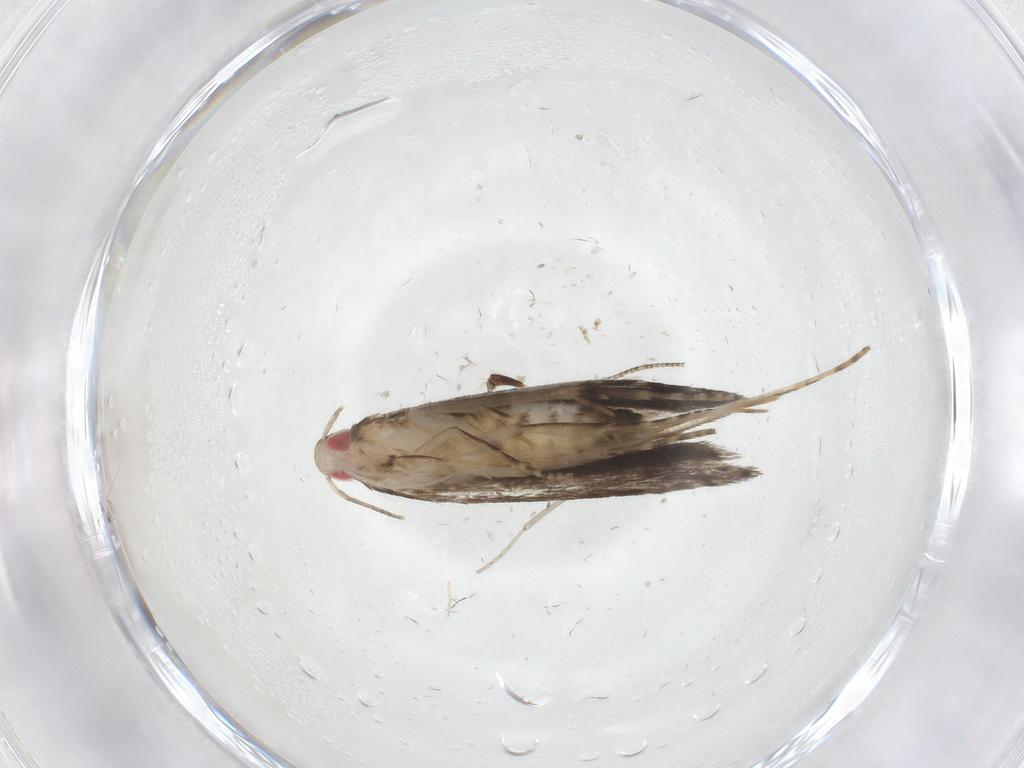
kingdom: Animalia
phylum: Arthropoda
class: Insecta
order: Lepidoptera
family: Gelechiidae
